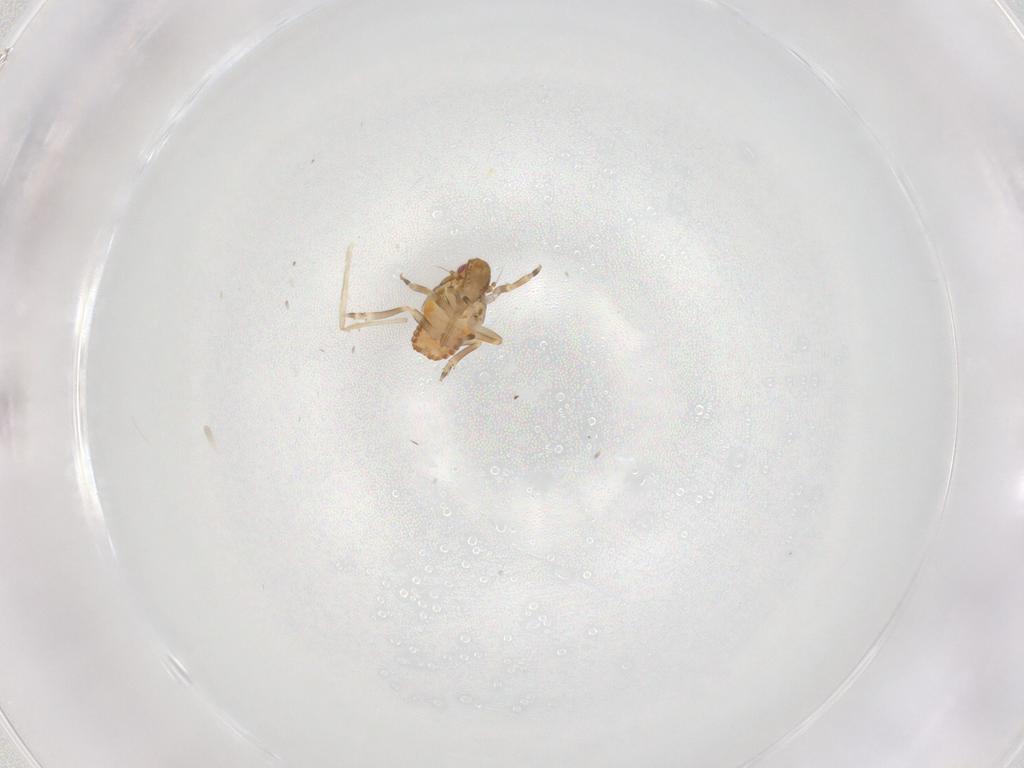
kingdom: Animalia
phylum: Arthropoda
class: Insecta
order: Hemiptera
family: Flatidae
